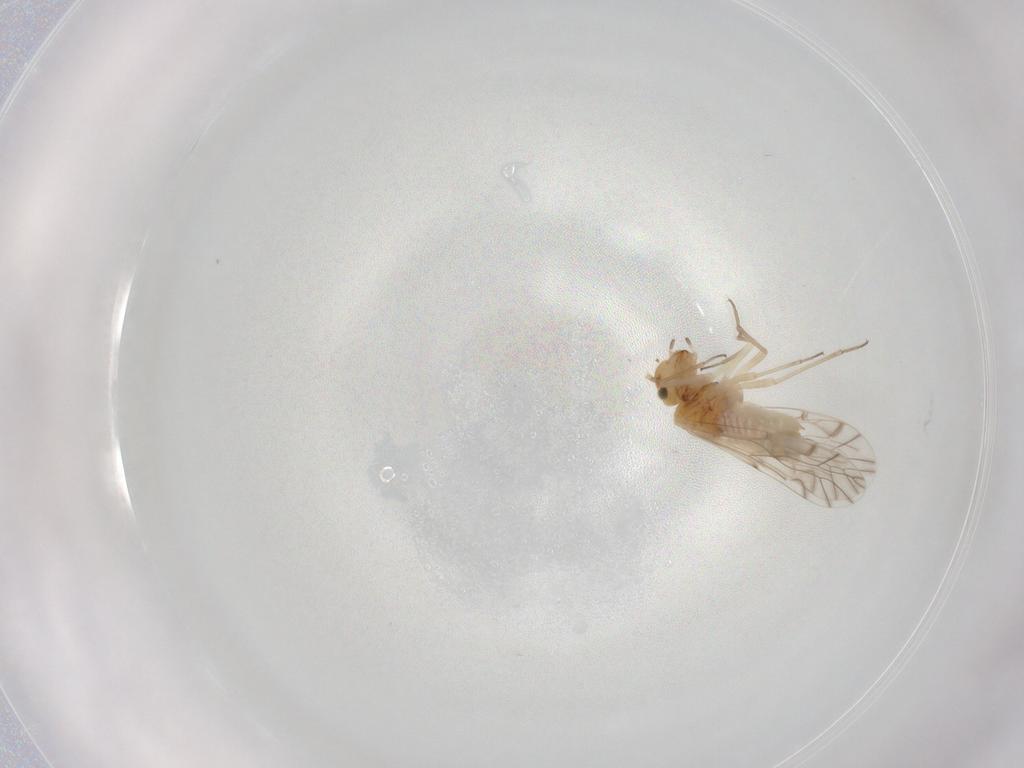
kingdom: Animalia
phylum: Arthropoda
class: Insecta
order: Psocodea
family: Lachesillidae
